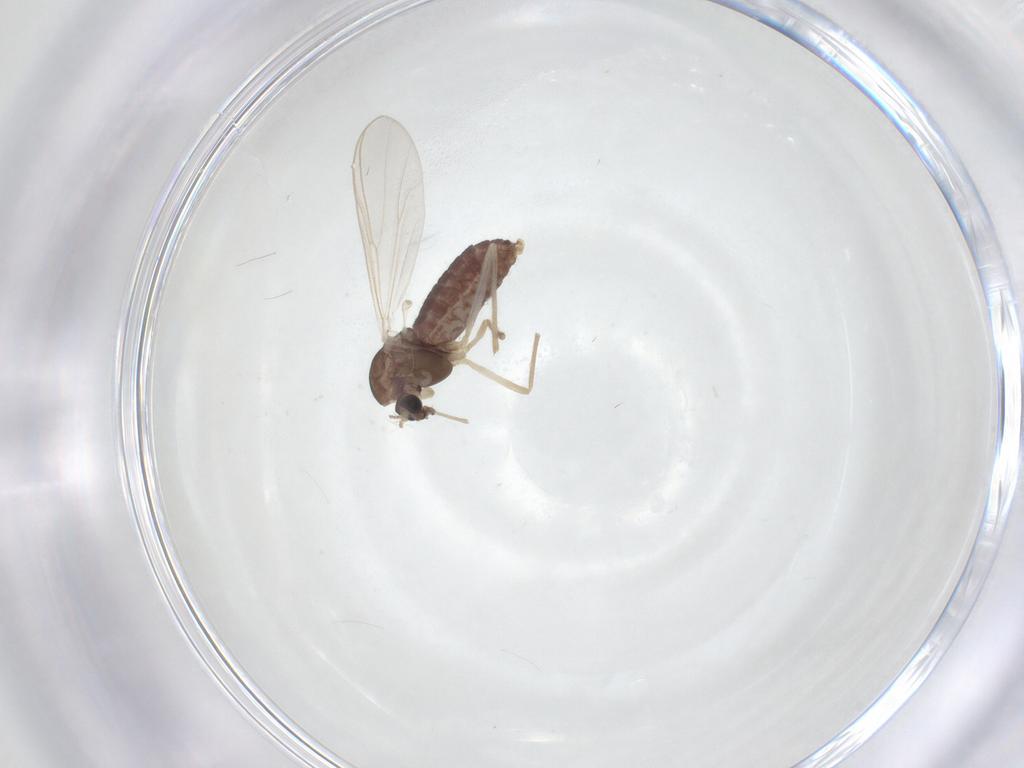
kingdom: Animalia
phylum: Arthropoda
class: Insecta
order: Diptera
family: Chironomidae
